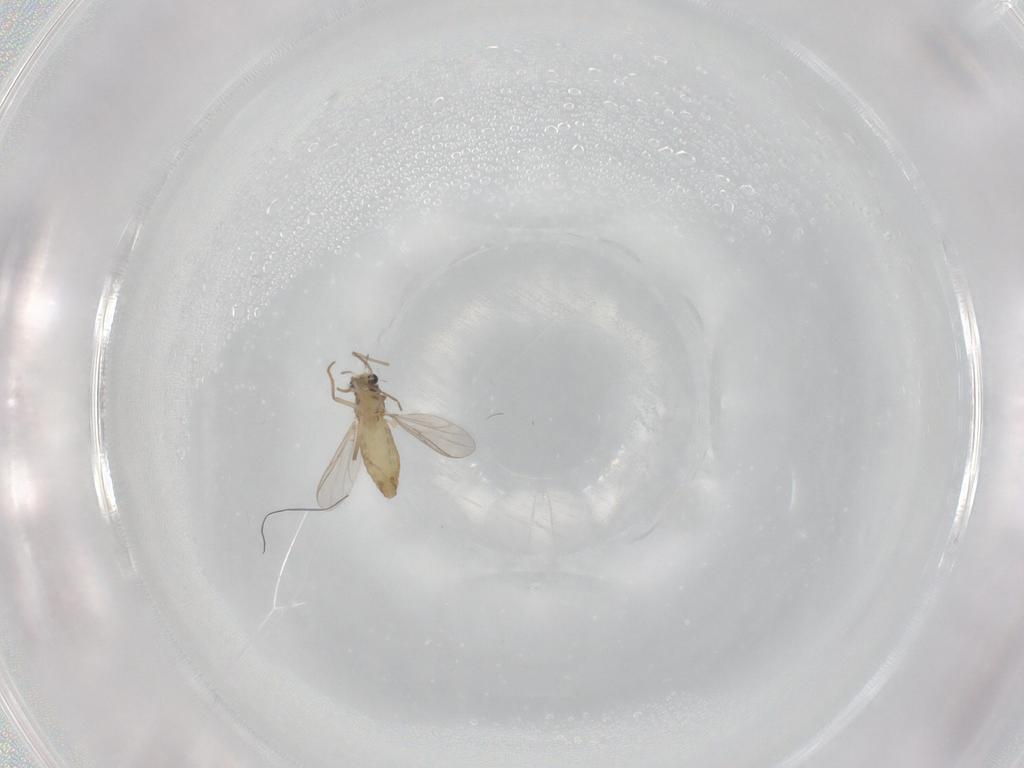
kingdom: Animalia
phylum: Arthropoda
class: Insecta
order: Diptera
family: Chironomidae
